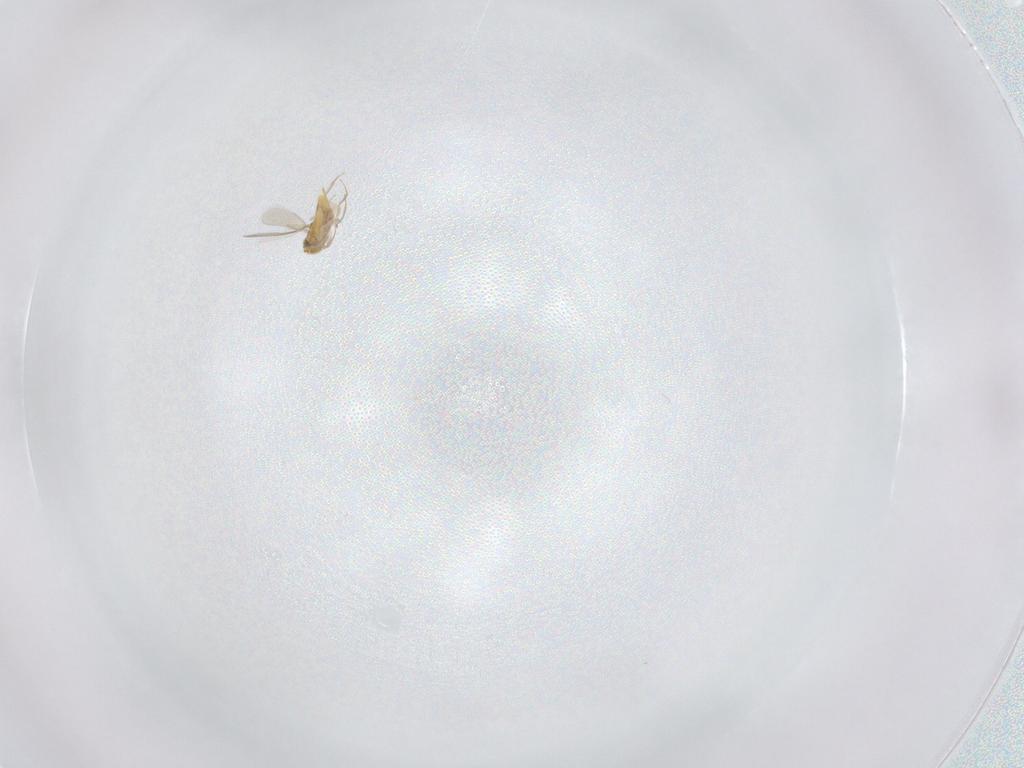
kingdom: Animalia
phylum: Arthropoda
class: Insecta
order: Hymenoptera
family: Aphelinidae
